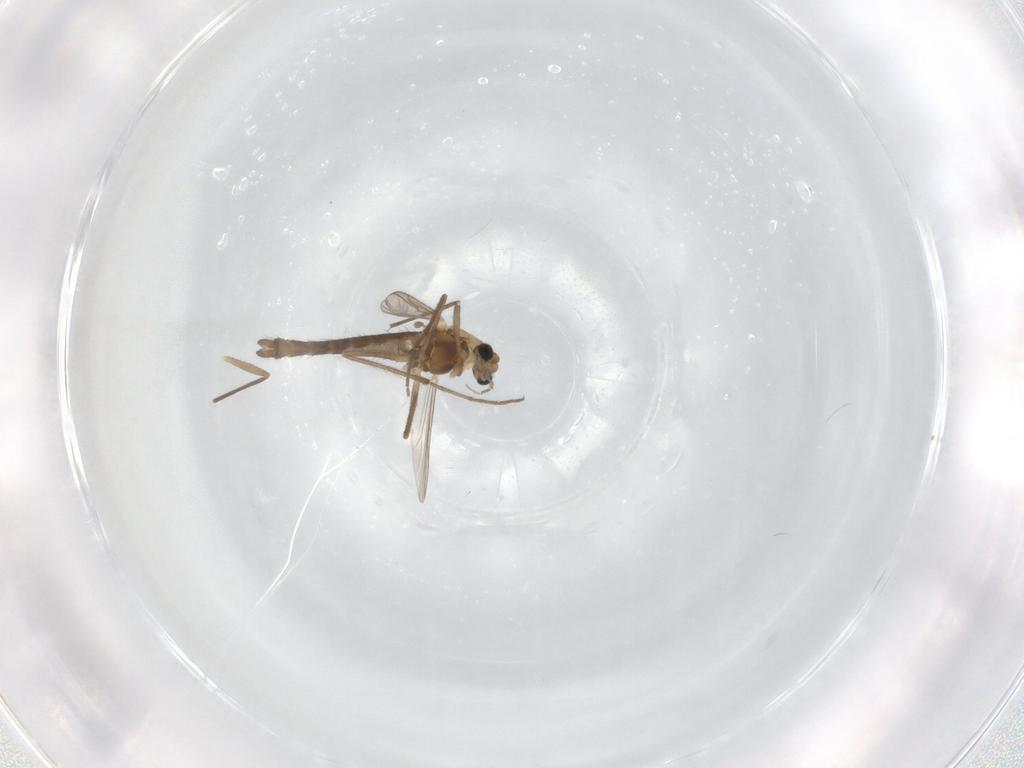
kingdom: Animalia
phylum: Arthropoda
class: Insecta
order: Diptera
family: Chironomidae
